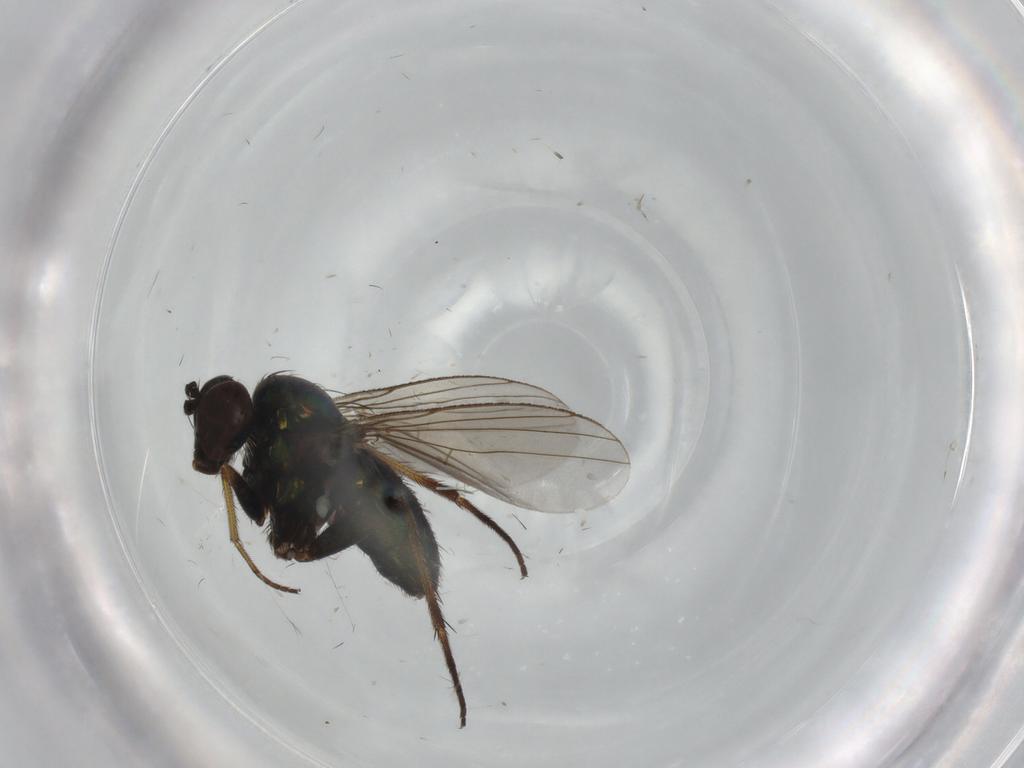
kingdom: Animalia
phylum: Arthropoda
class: Insecta
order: Diptera
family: Dolichopodidae
